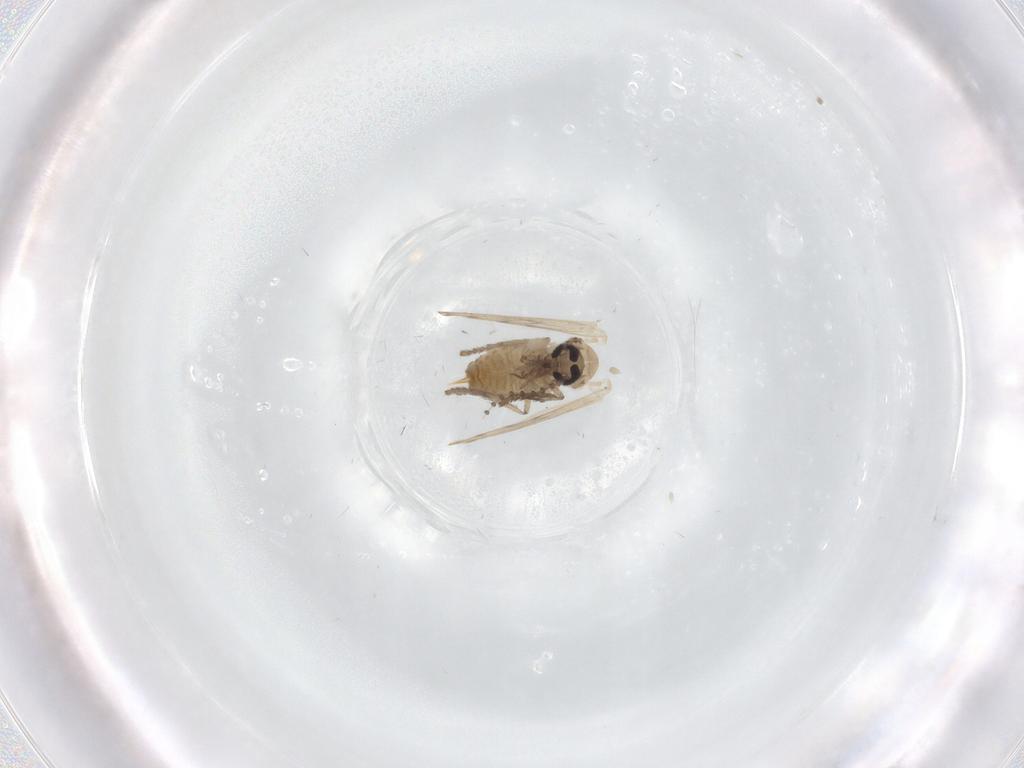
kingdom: Animalia
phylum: Arthropoda
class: Insecta
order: Diptera
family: Psychodidae
